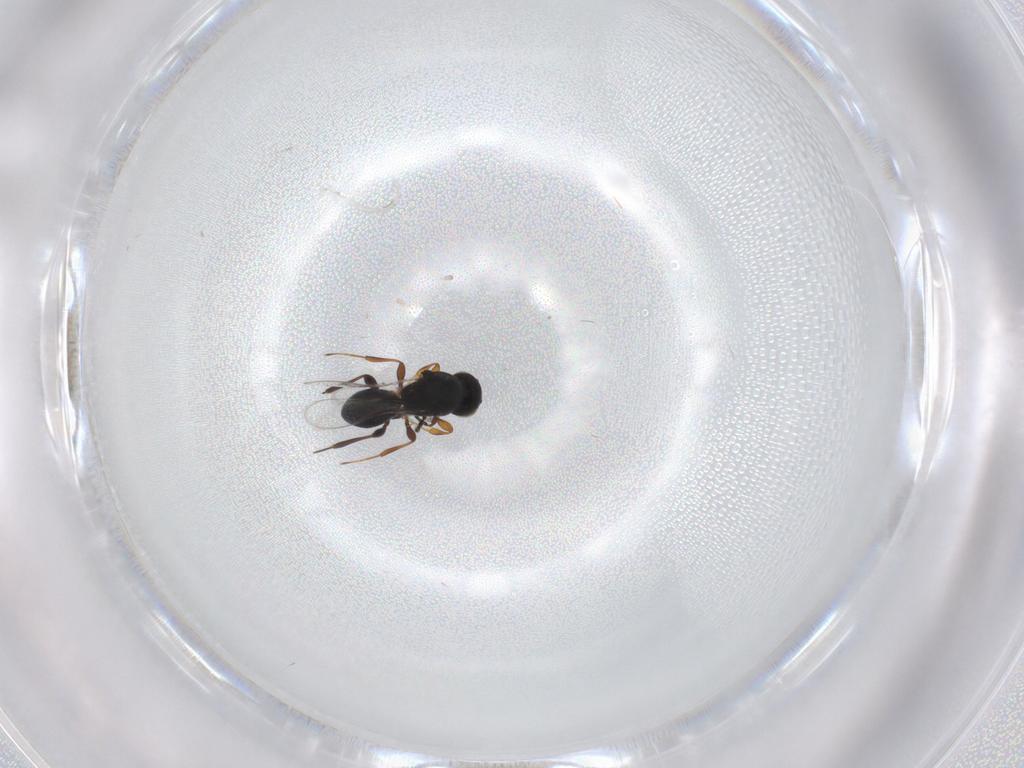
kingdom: Animalia
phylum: Arthropoda
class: Insecta
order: Hymenoptera
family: Platygastridae
